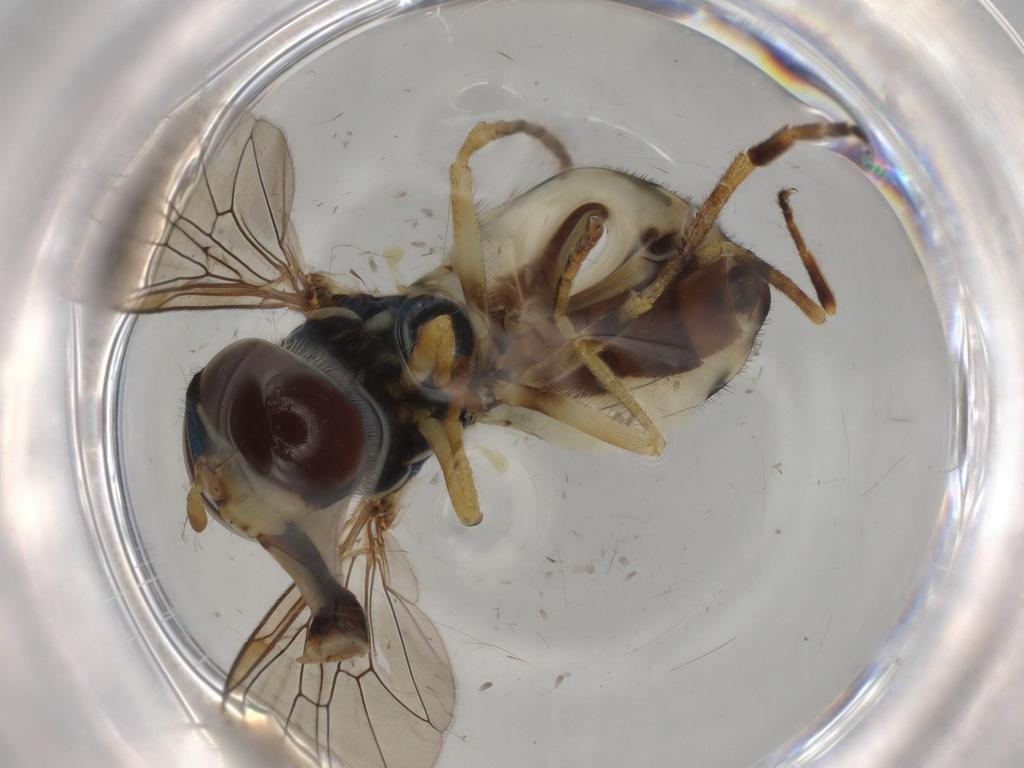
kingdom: Animalia
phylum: Arthropoda
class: Insecta
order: Diptera
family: Syrphidae
